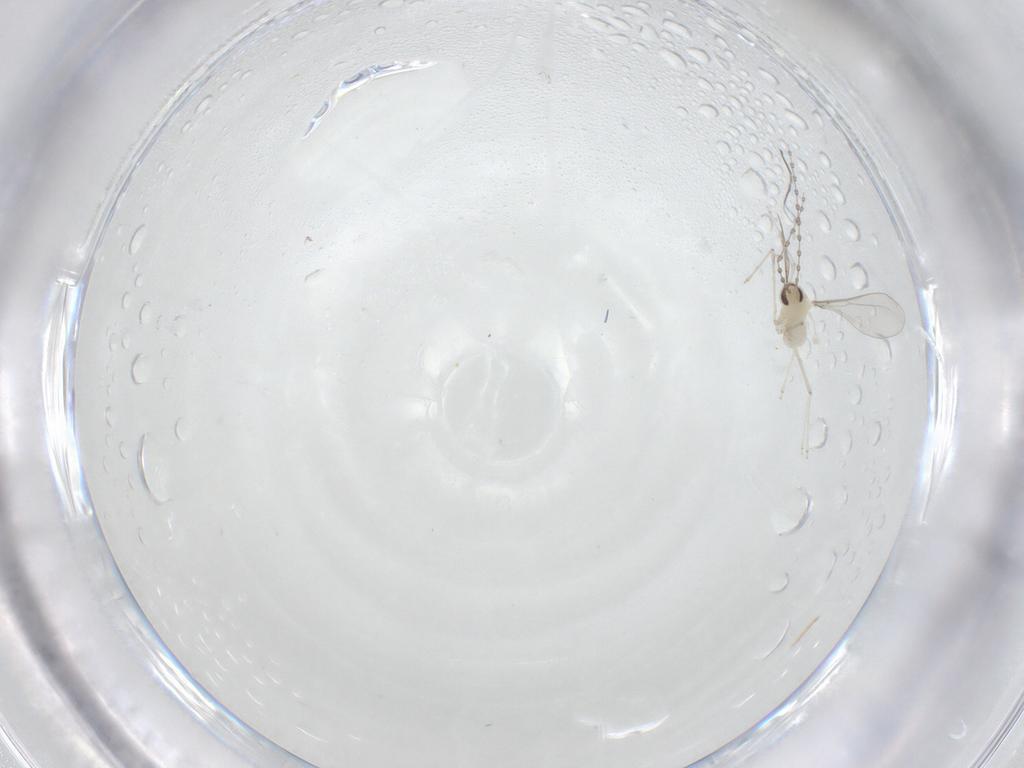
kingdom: Animalia
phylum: Arthropoda
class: Insecta
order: Diptera
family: Cecidomyiidae
